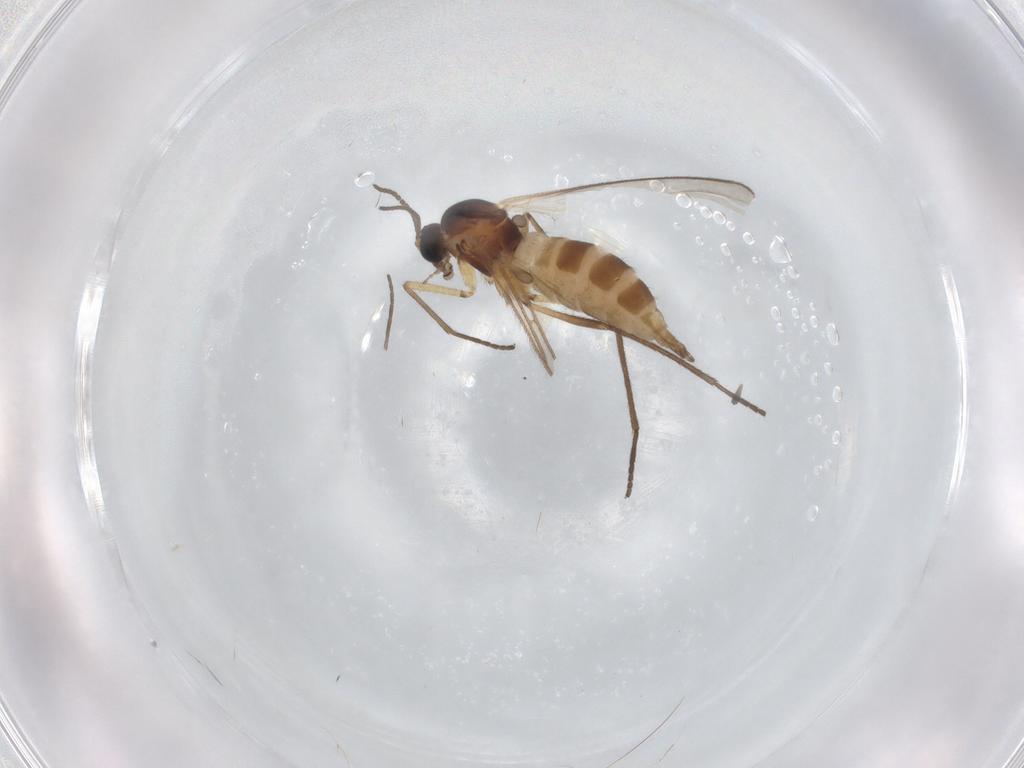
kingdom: Animalia
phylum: Arthropoda
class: Insecta
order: Diptera
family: Sciaridae
